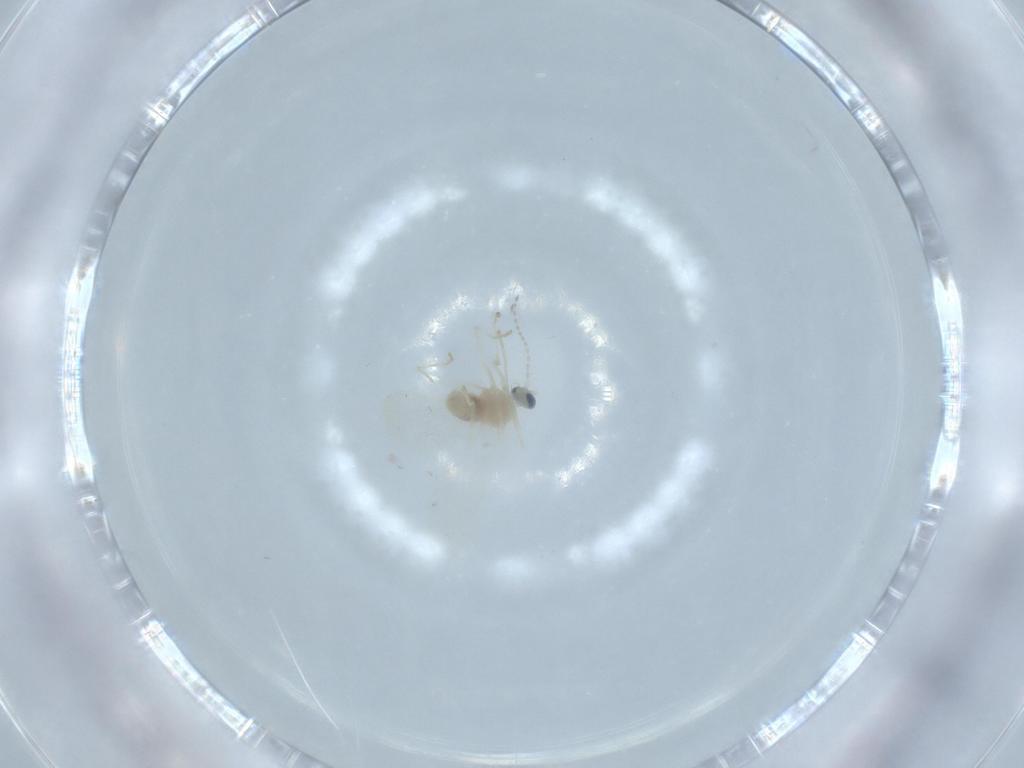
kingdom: Animalia
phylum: Arthropoda
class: Insecta
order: Diptera
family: Cecidomyiidae
